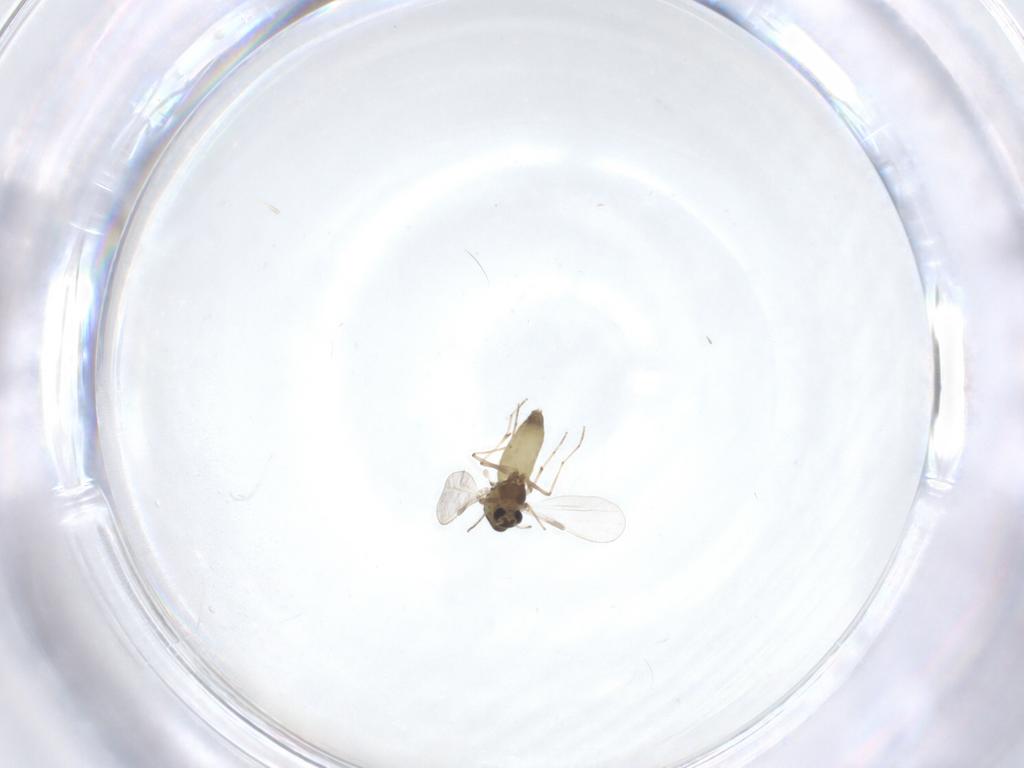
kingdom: Animalia
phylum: Arthropoda
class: Insecta
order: Diptera
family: Chironomidae
